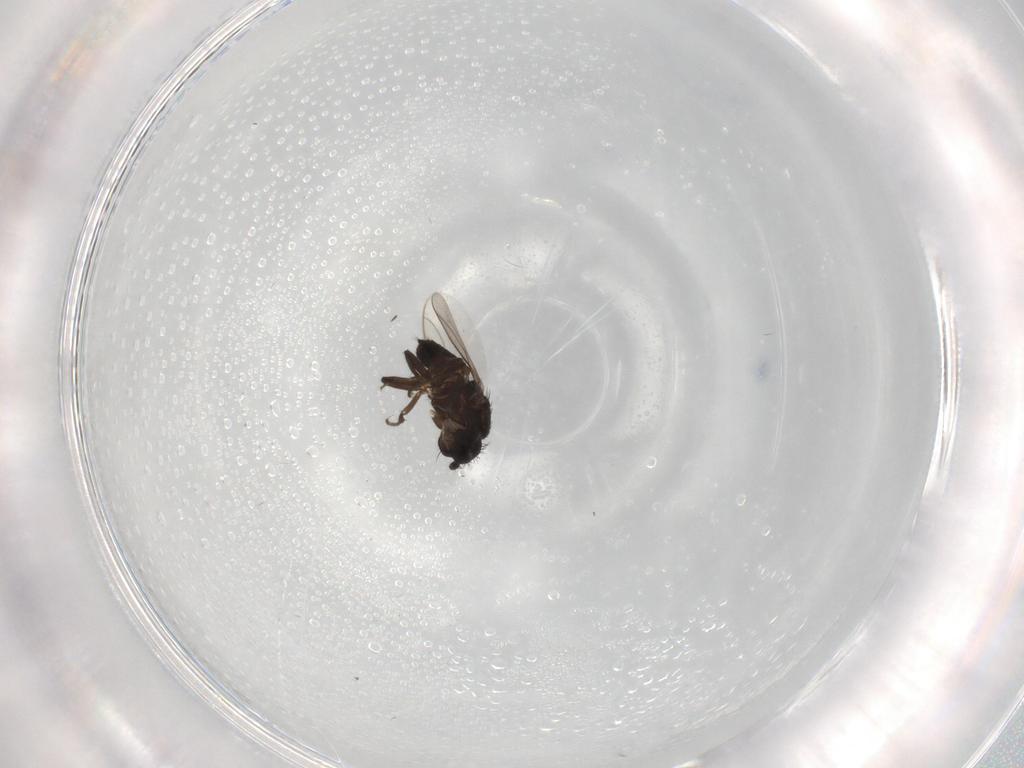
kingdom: Animalia
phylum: Arthropoda
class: Insecta
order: Diptera
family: Chironomidae
